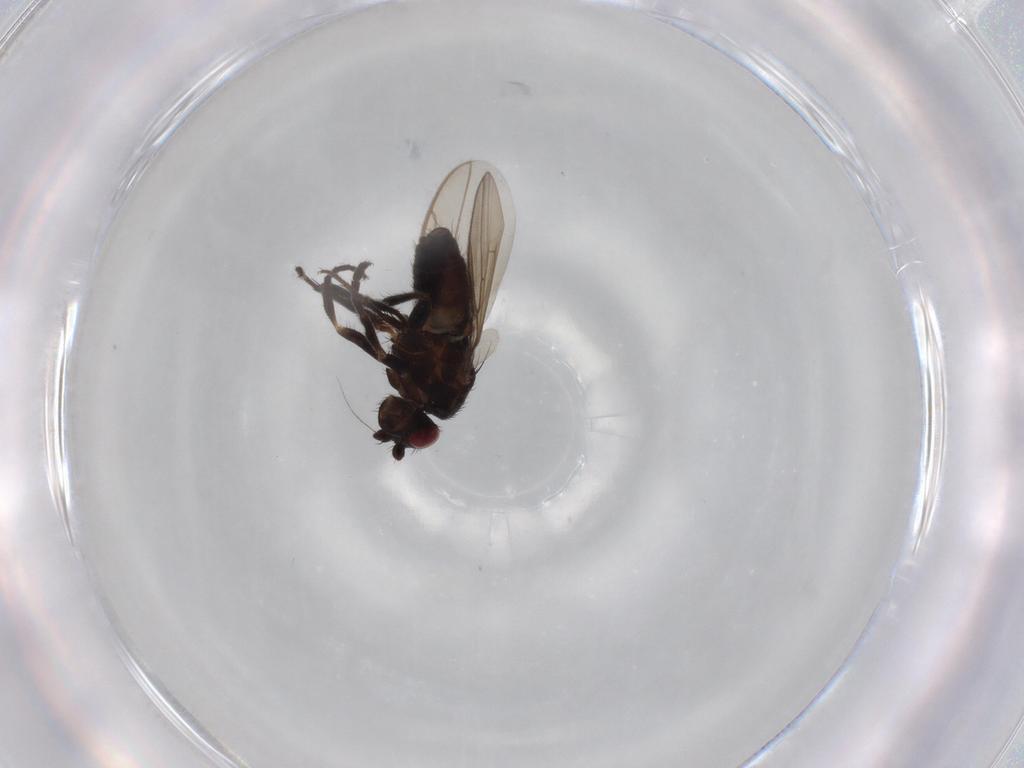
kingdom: Animalia
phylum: Arthropoda
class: Insecta
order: Diptera
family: Sphaeroceridae
